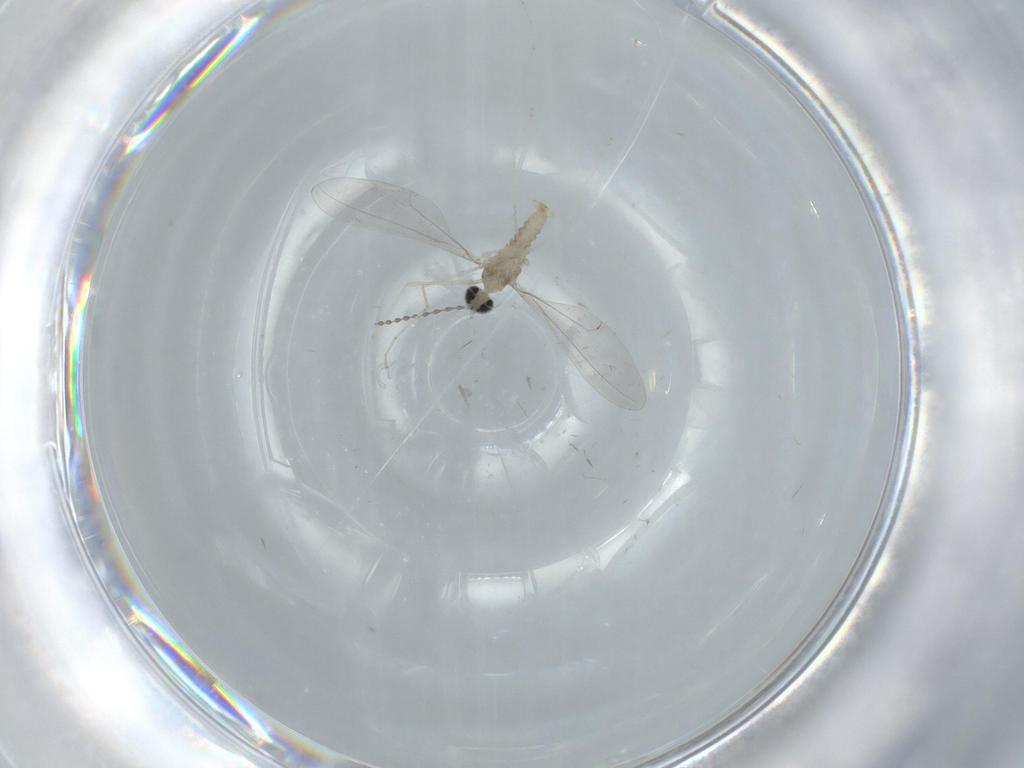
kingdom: Animalia
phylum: Arthropoda
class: Insecta
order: Diptera
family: Cecidomyiidae
